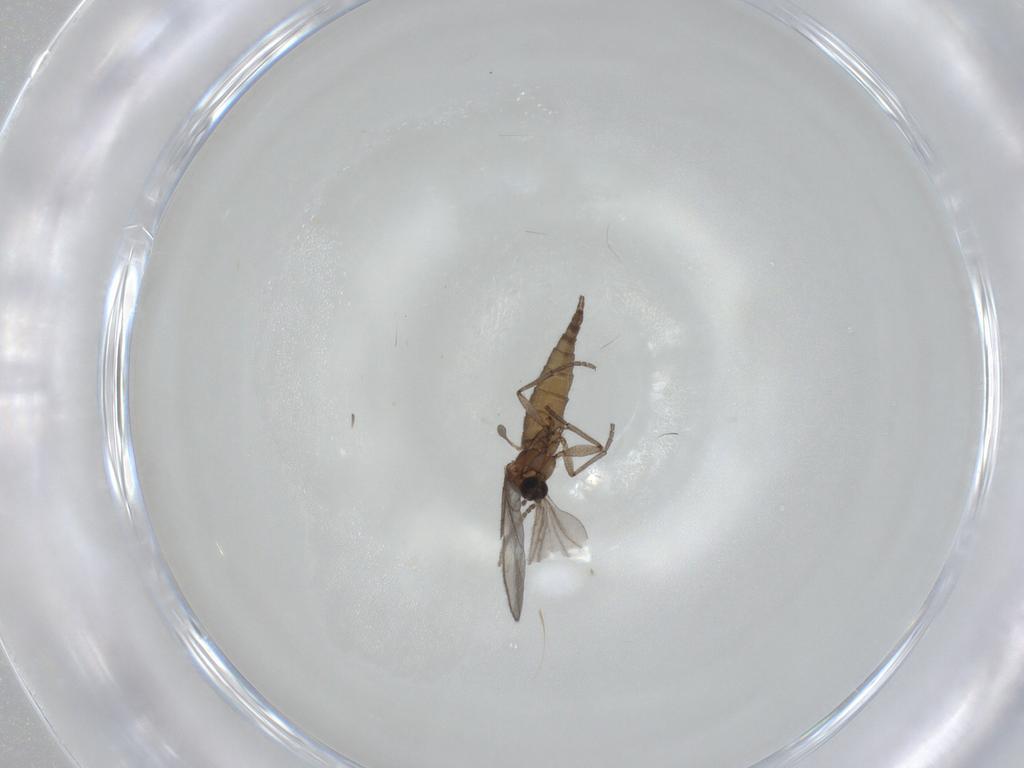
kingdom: Animalia
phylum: Arthropoda
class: Insecta
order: Diptera
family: Sciaridae
